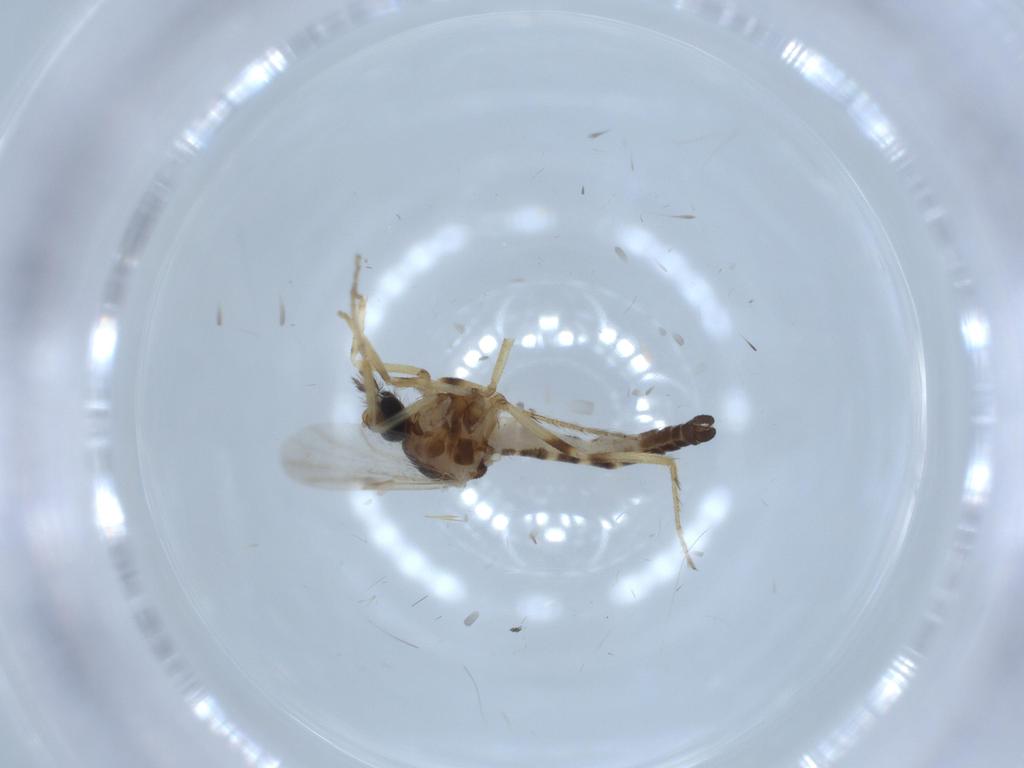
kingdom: Animalia
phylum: Arthropoda
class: Insecta
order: Diptera
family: Ceratopogonidae
